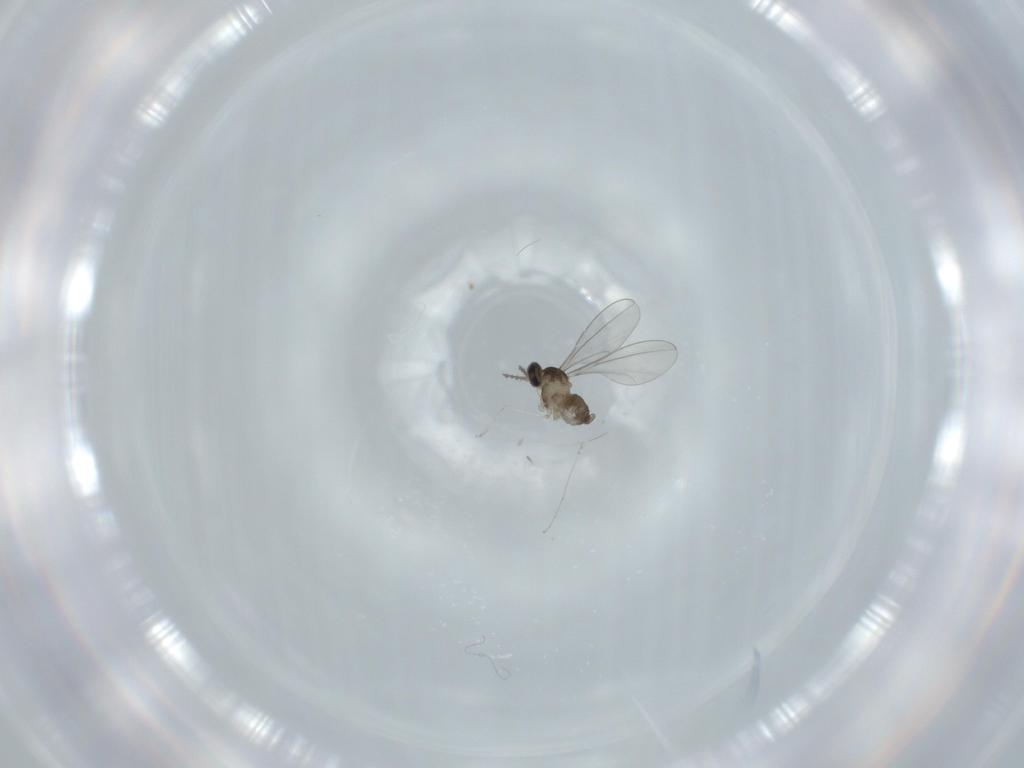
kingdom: Animalia
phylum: Arthropoda
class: Insecta
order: Diptera
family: Cecidomyiidae
